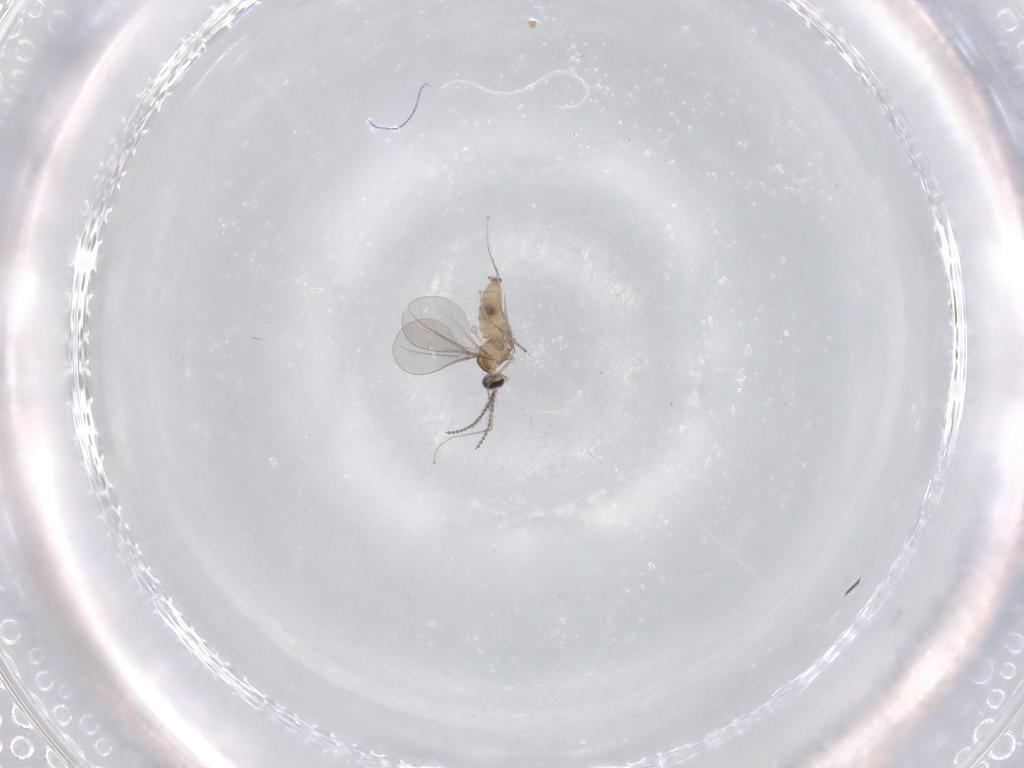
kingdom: Animalia
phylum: Arthropoda
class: Insecta
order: Diptera
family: Cecidomyiidae
